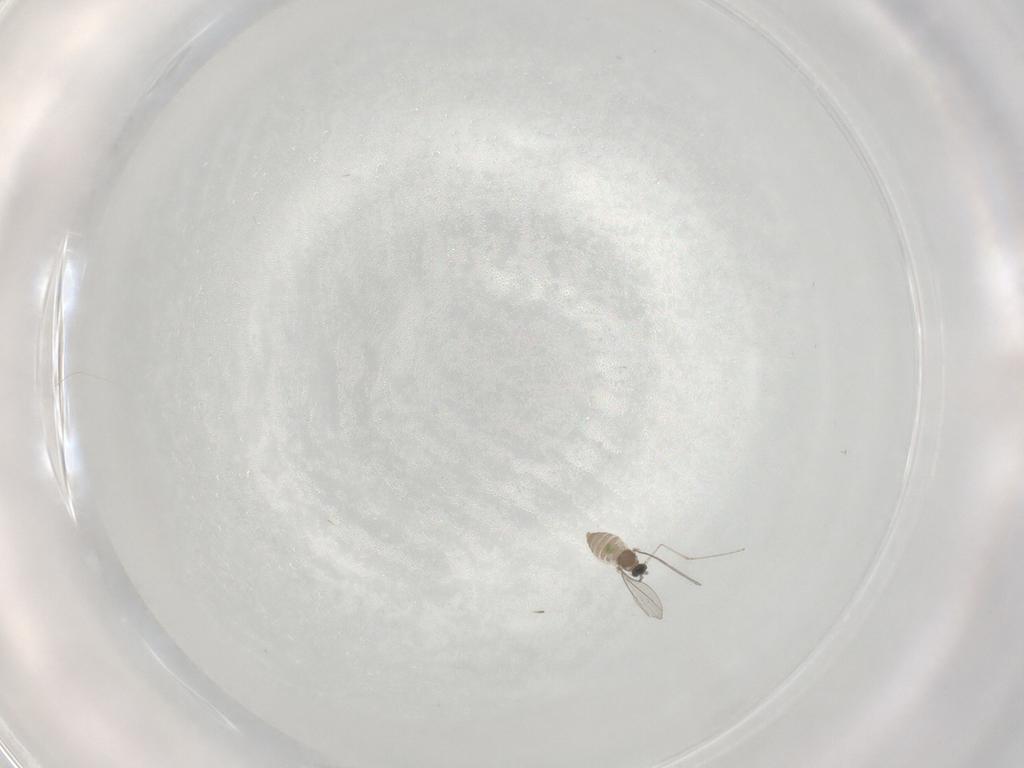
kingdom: Animalia
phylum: Arthropoda
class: Insecta
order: Diptera
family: Cecidomyiidae
